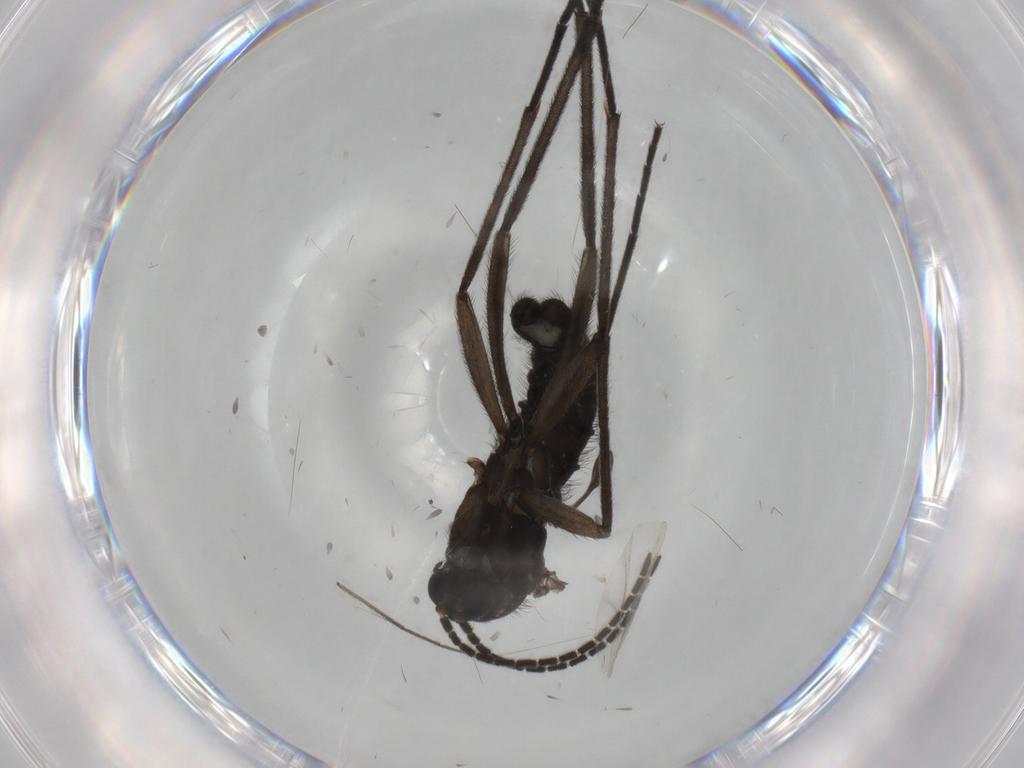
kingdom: Animalia
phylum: Arthropoda
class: Insecta
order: Diptera
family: Sciaridae
